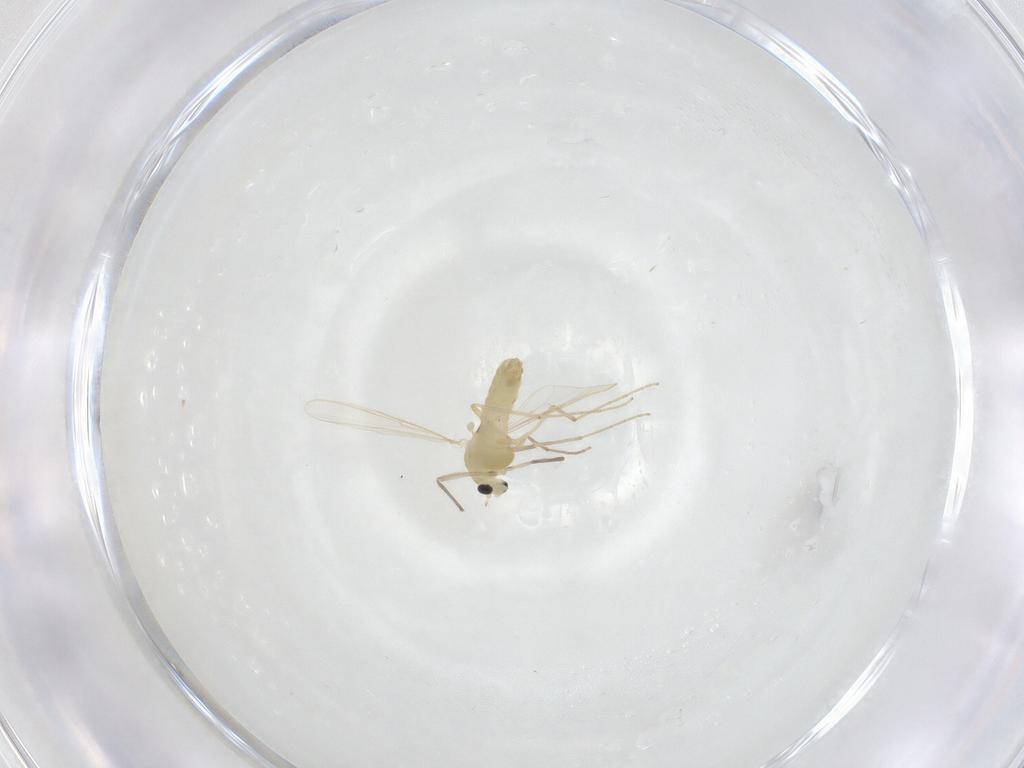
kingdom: Animalia
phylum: Arthropoda
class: Insecta
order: Diptera
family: Chironomidae
